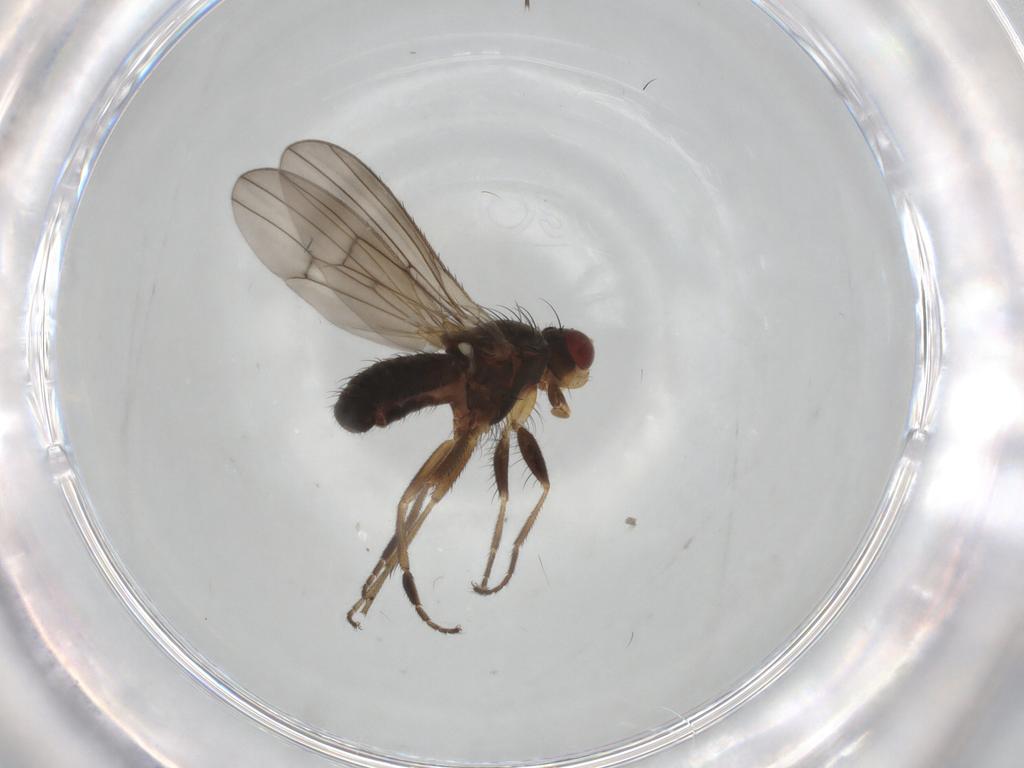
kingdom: Animalia
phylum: Arthropoda
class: Insecta
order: Diptera
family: Heleomyzidae
